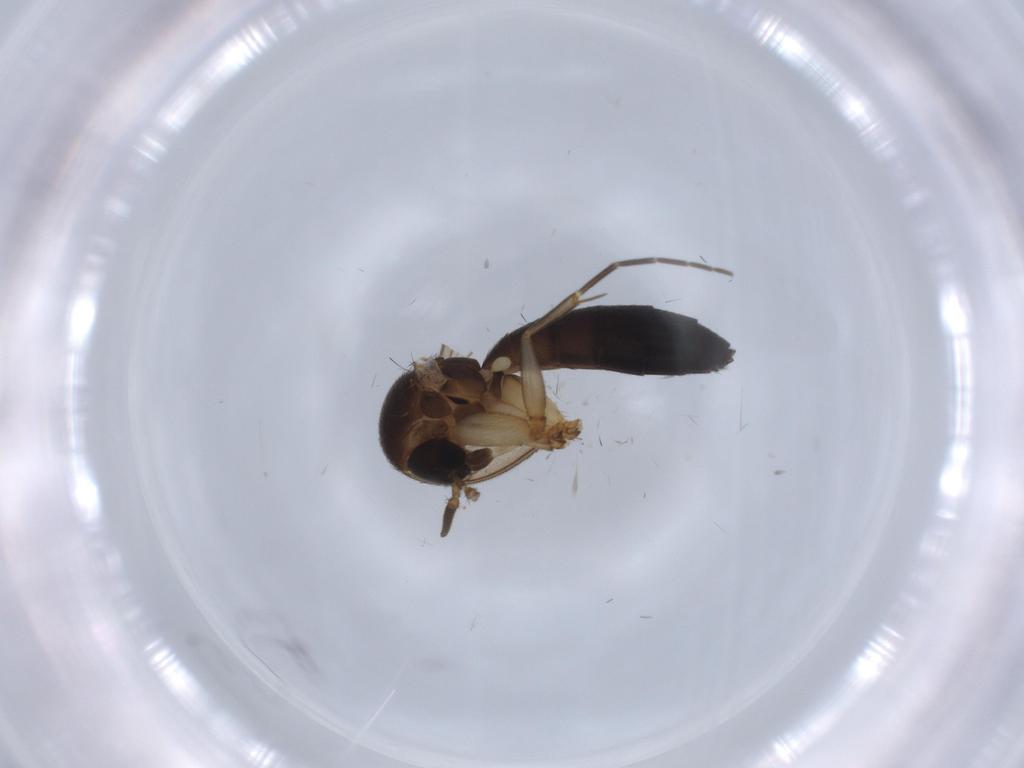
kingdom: Animalia
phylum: Arthropoda
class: Insecta
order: Diptera
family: Mycetophilidae
